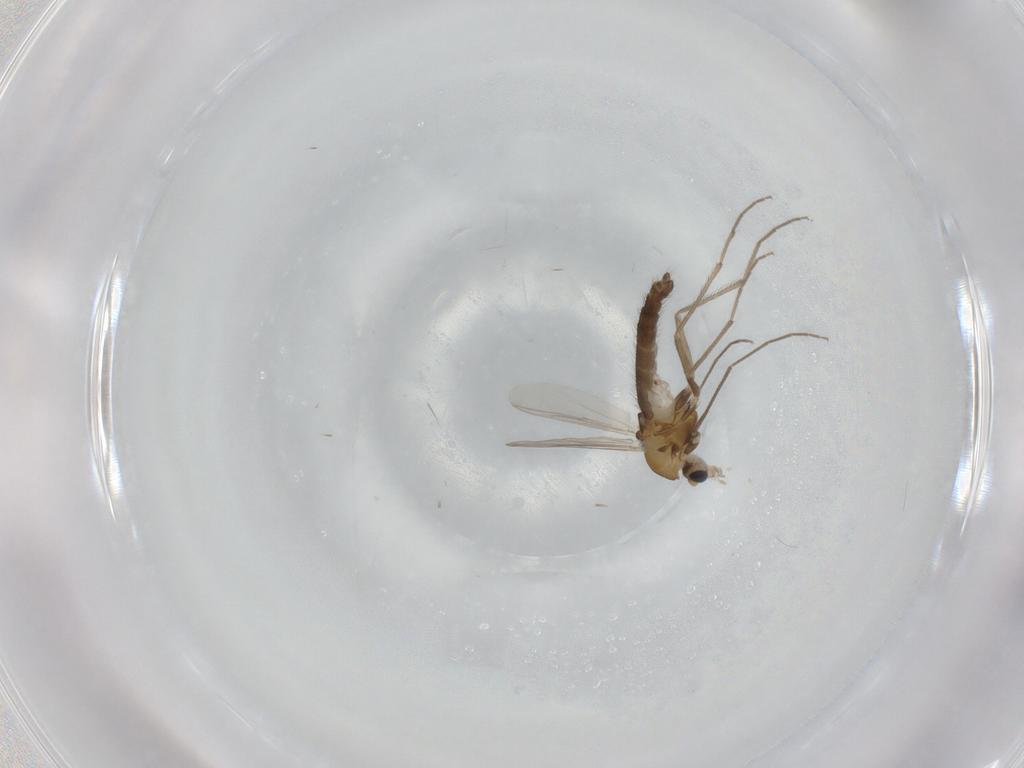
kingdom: Animalia
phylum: Arthropoda
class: Insecta
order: Diptera
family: Chironomidae
